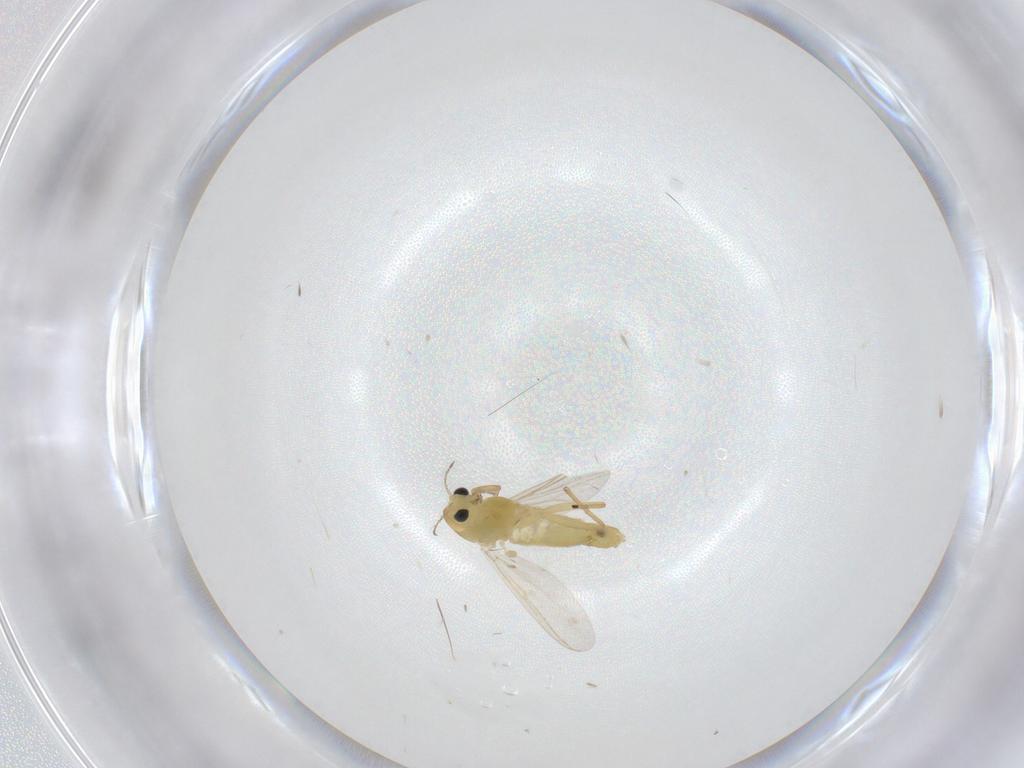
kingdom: Animalia
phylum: Arthropoda
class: Insecta
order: Diptera
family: Chironomidae
